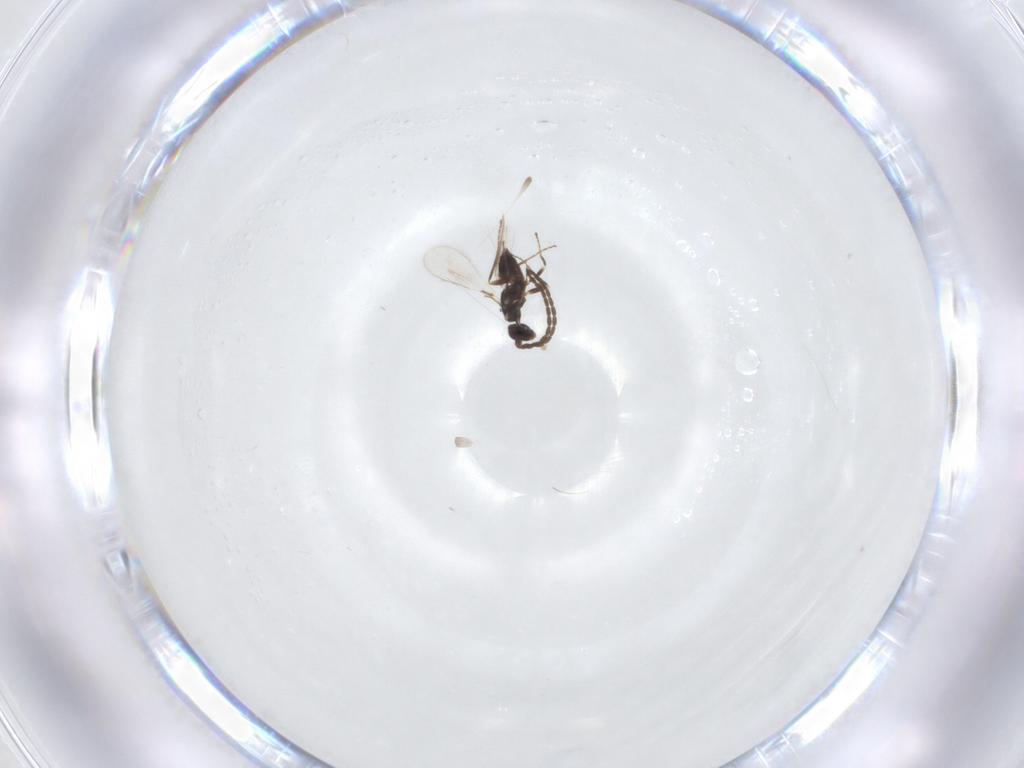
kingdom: Animalia
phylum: Arthropoda
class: Insecta
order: Hymenoptera
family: Mymaridae
